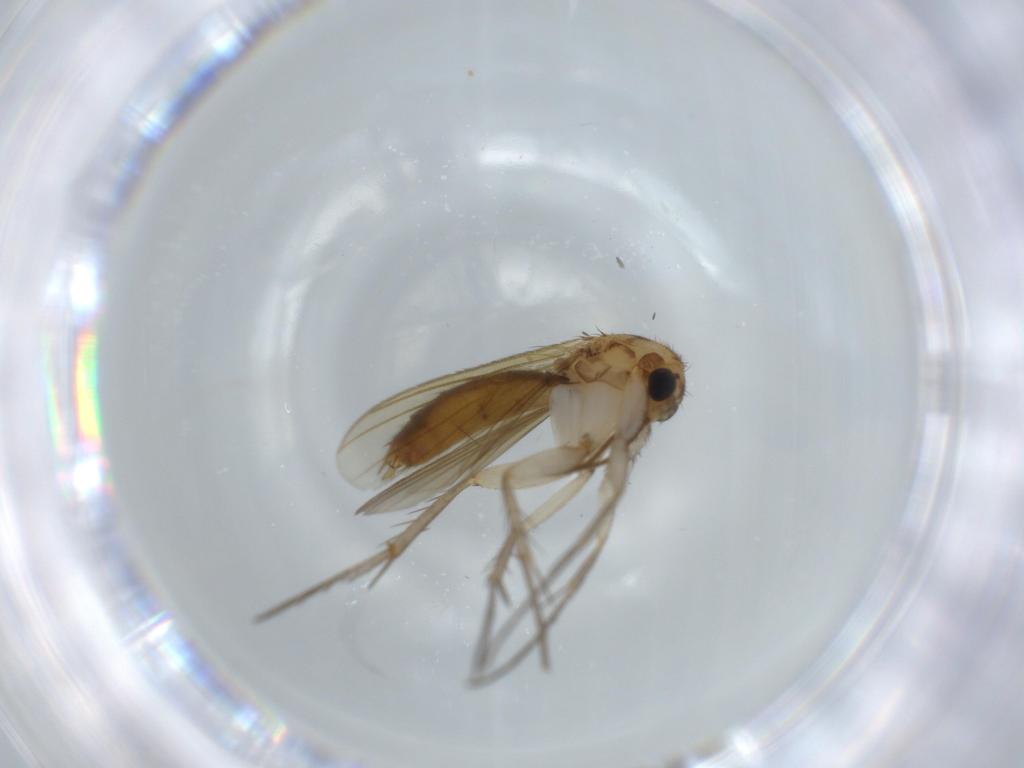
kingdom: Animalia
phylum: Arthropoda
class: Insecta
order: Diptera
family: Ceratopogonidae
